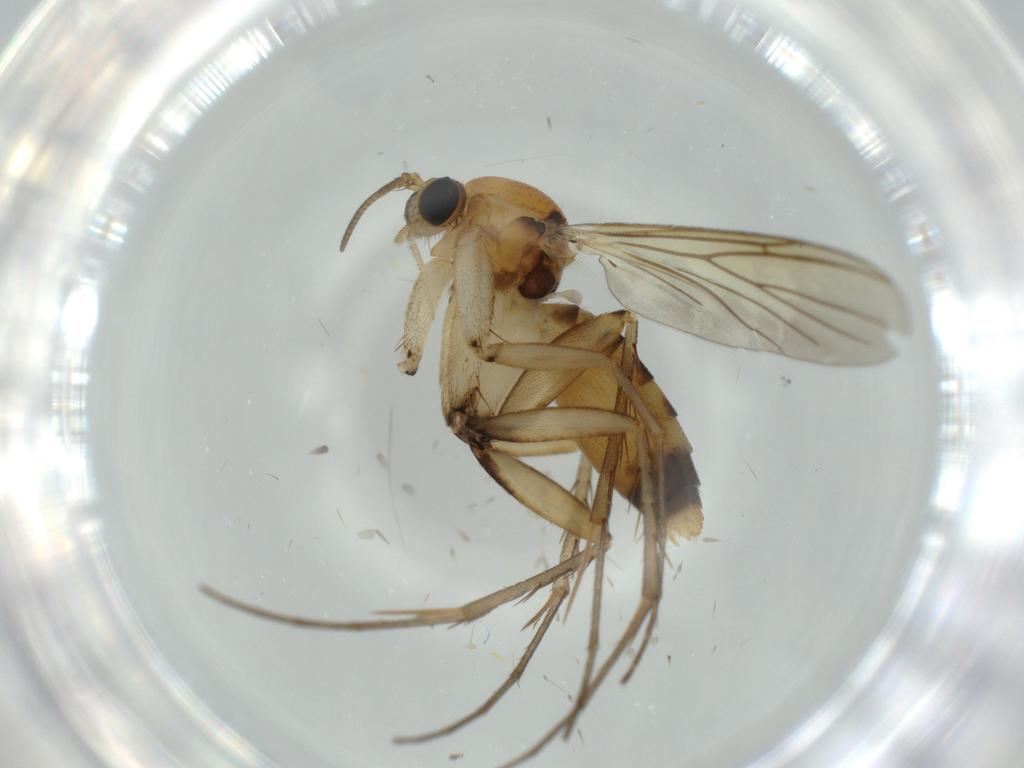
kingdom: Animalia
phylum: Arthropoda
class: Insecta
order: Diptera
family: Mycetophilidae
